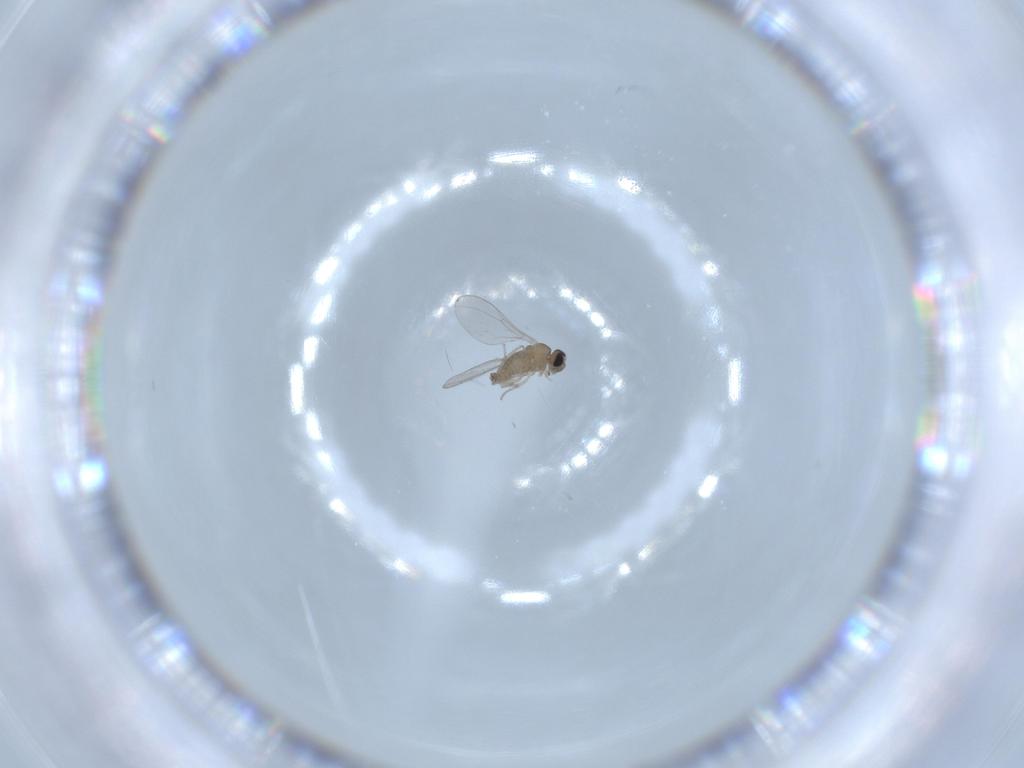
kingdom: Animalia
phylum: Arthropoda
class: Insecta
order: Diptera
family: Cecidomyiidae
